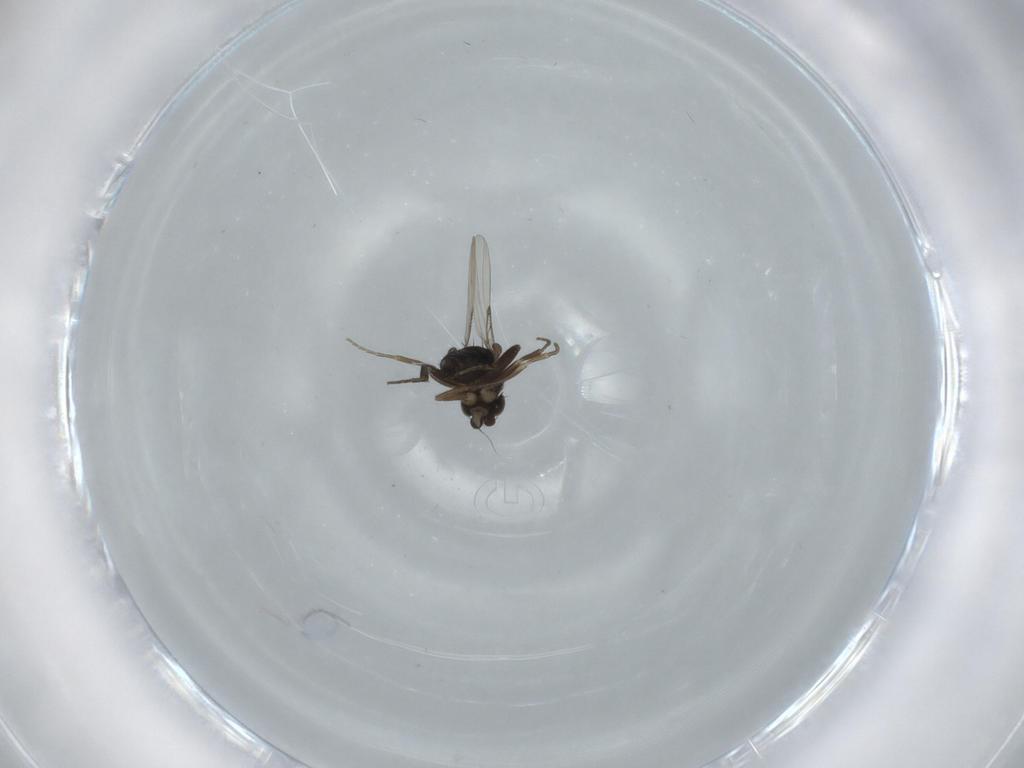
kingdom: Animalia
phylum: Arthropoda
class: Insecta
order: Diptera
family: Phoridae
